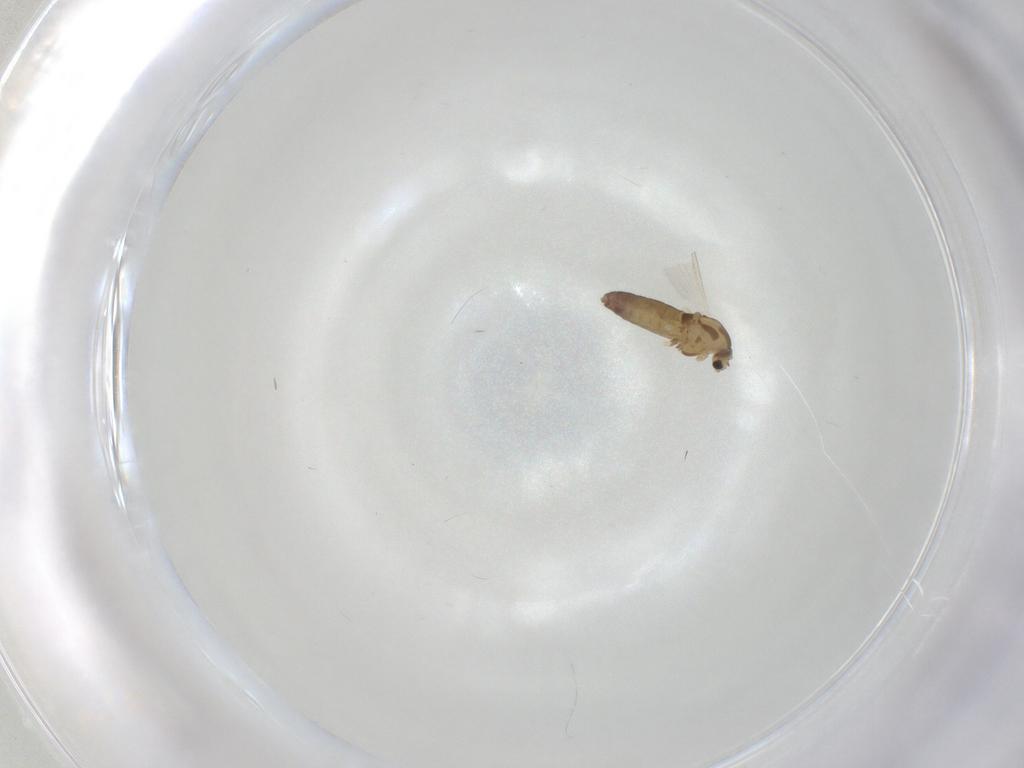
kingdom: Animalia
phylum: Arthropoda
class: Insecta
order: Diptera
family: Chironomidae
